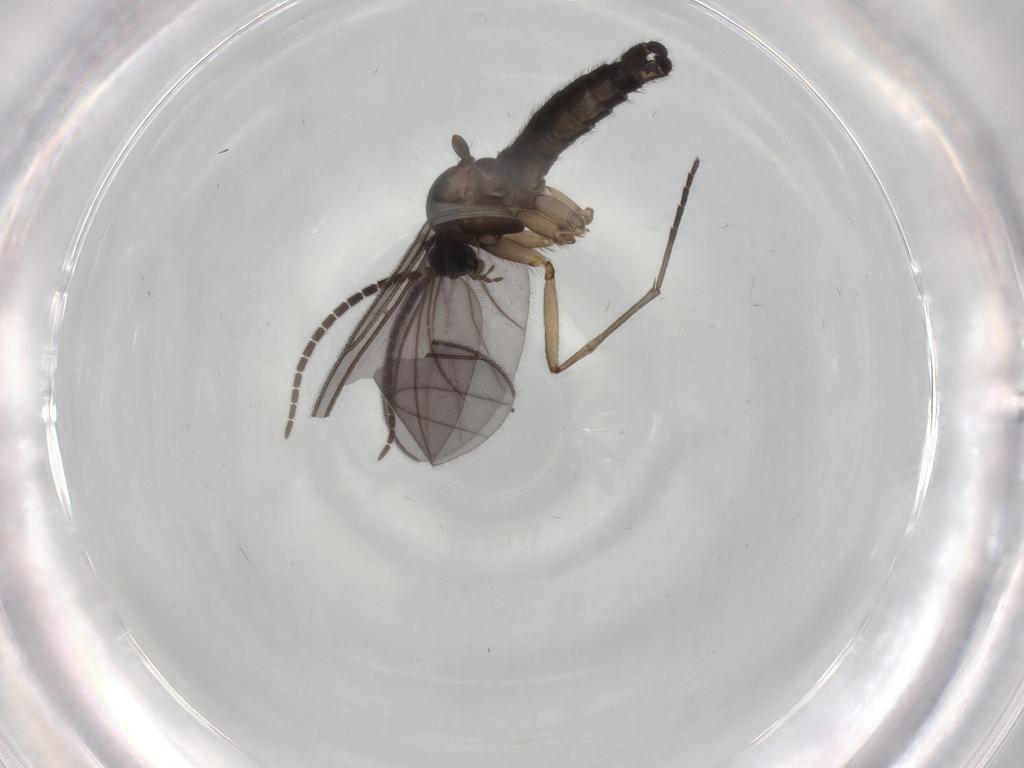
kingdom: Animalia
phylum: Arthropoda
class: Insecta
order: Diptera
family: Sciaridae
